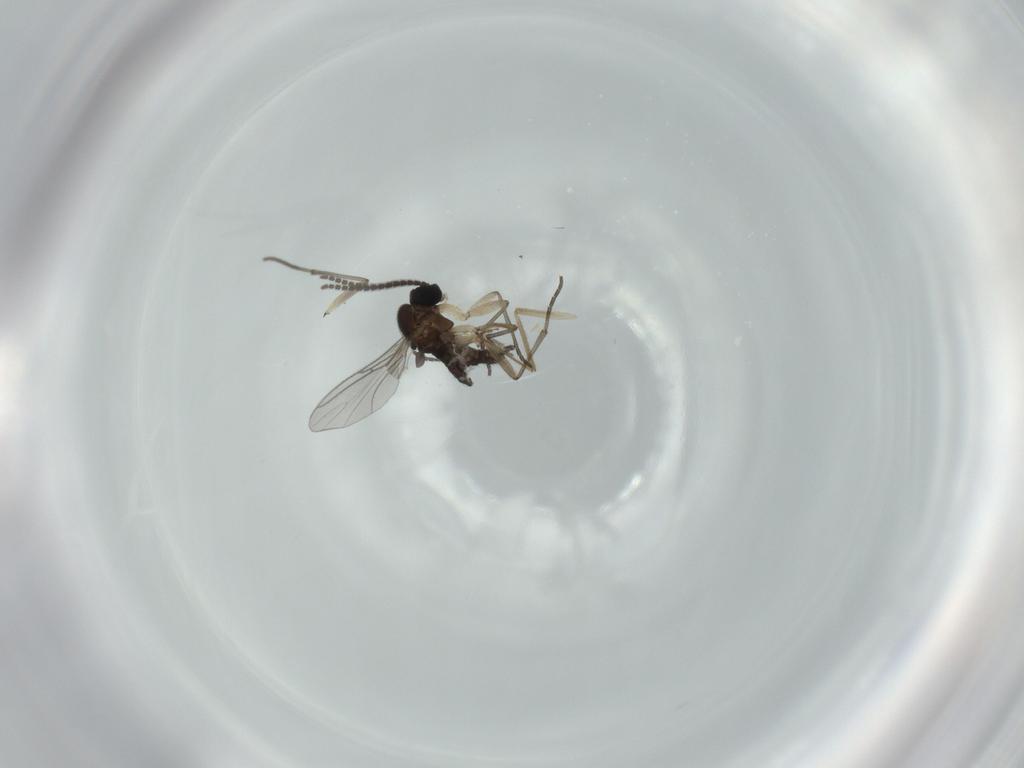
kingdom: Animalia
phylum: Arthropoda
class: Insecta
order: Diptera
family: Sciaridae
